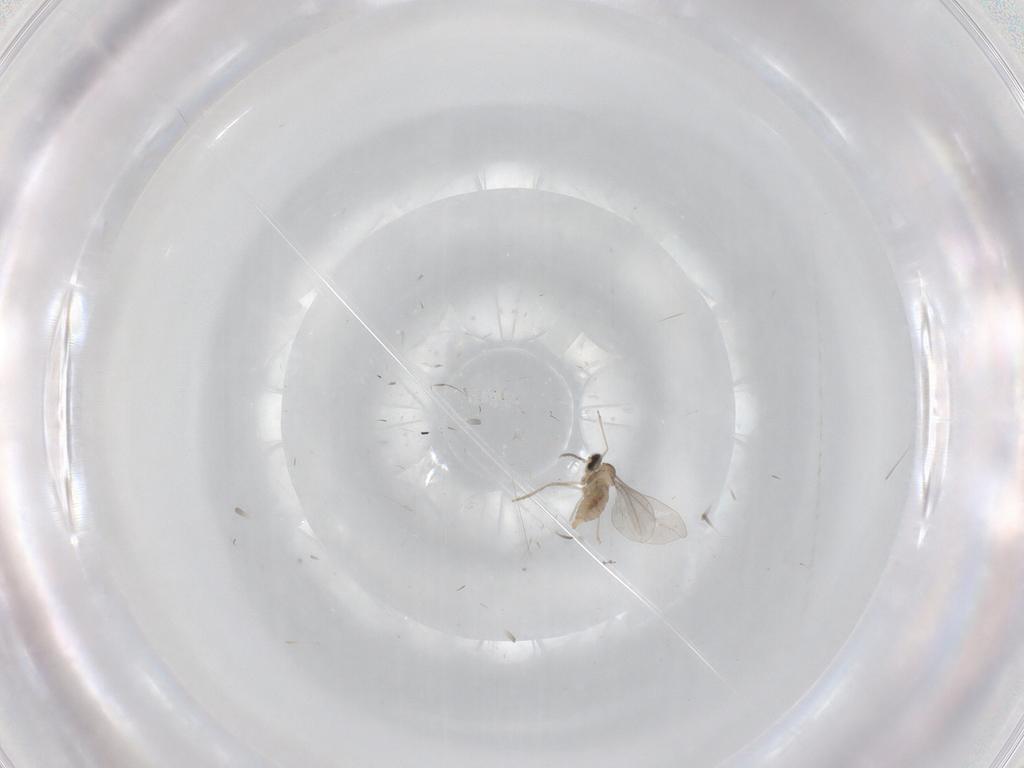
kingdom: Animalia
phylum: Arthropoda
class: Insecta
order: Diptera
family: Cecidomyiidae
